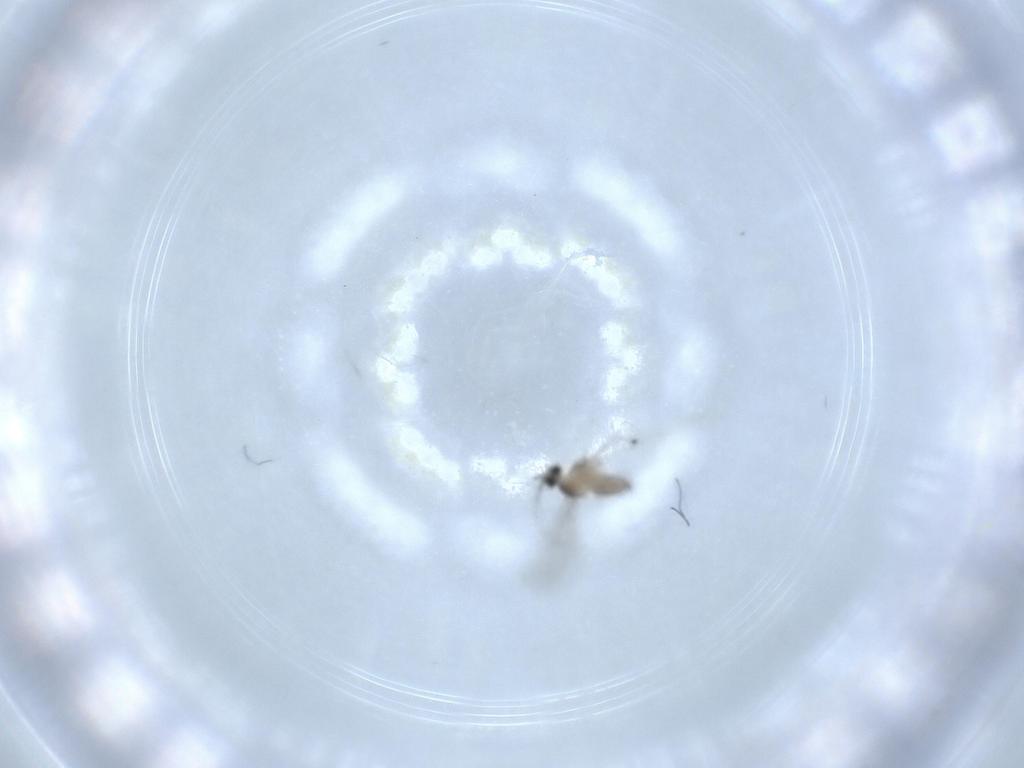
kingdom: Animalia
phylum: Arthropoda
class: Insecta
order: Diptera
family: Cecidomyiidae
